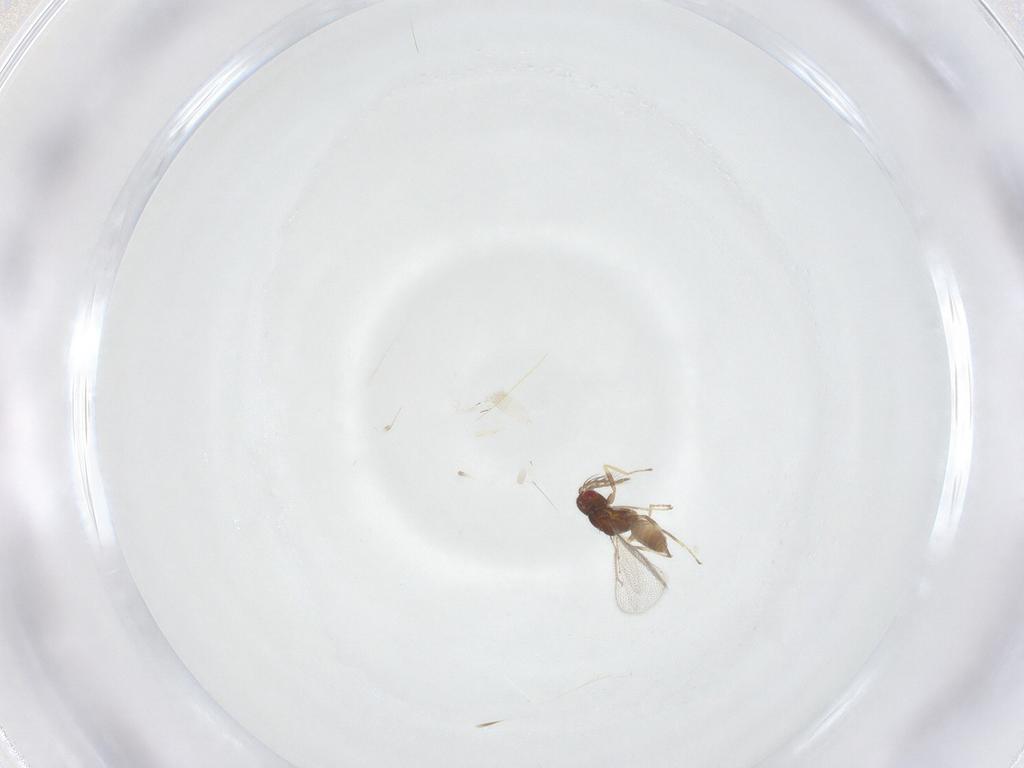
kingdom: Animalia
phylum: Arthropoda
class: Insecta
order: Hymenoptera
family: Eulophidae
